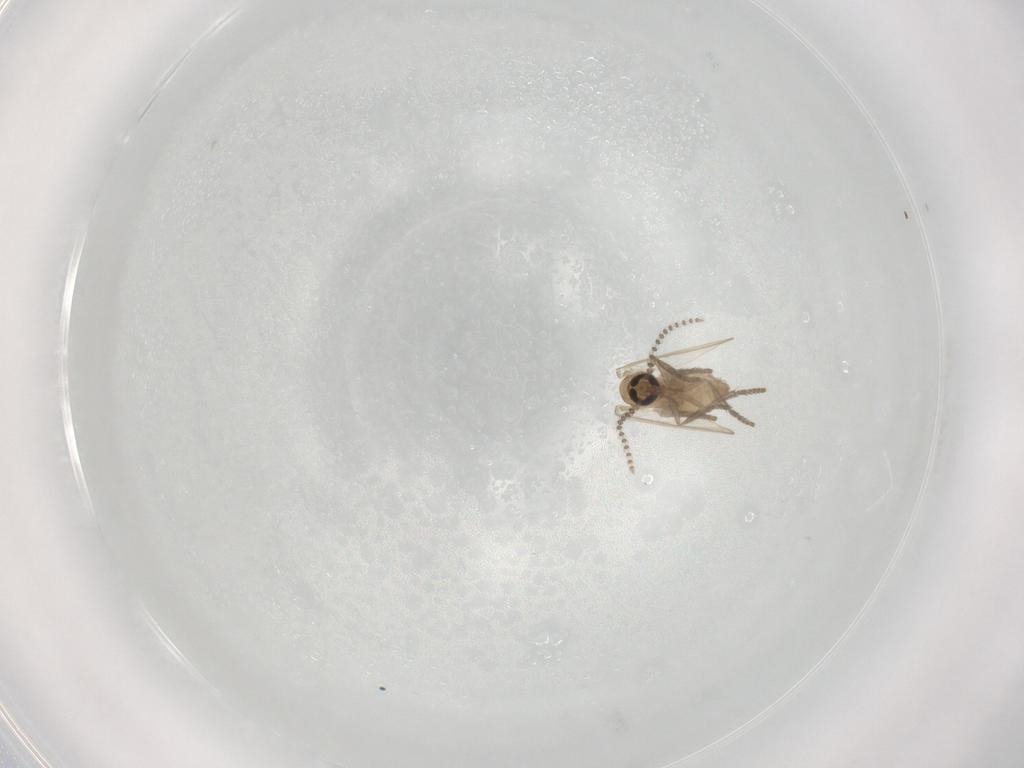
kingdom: Animalia
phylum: Arthropoda
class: Insecta
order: Diptera
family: Psychodidae
